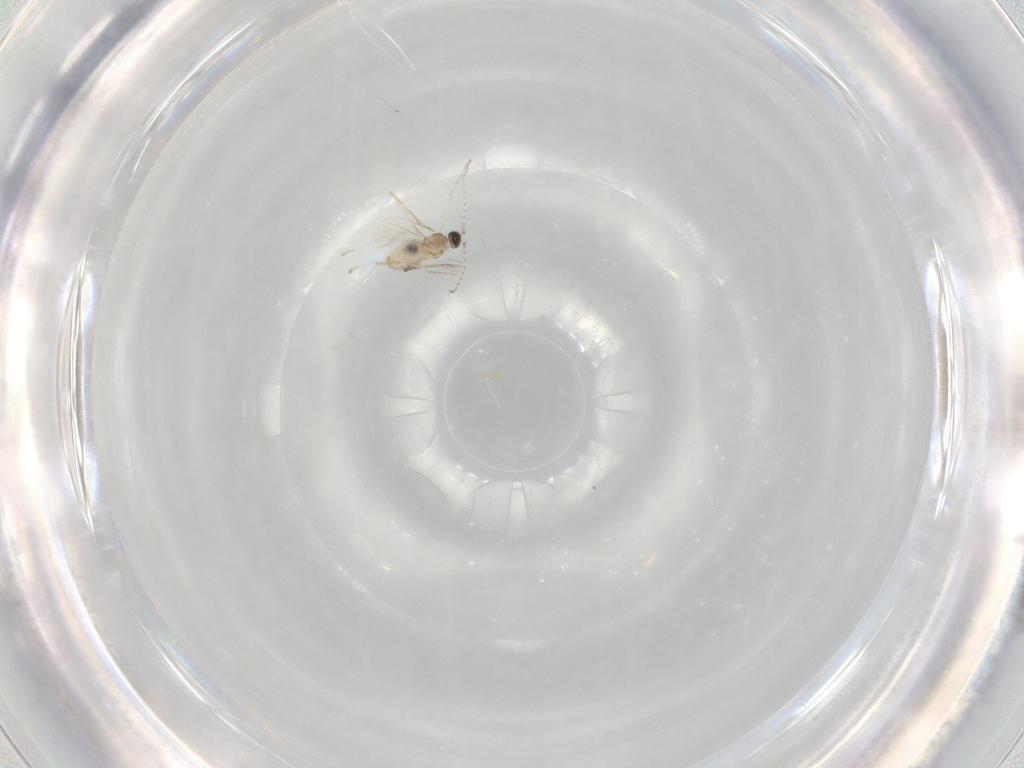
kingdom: Animalia
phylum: Arthropoda
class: Insecta
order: Diptera
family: Cecidomyiidae
